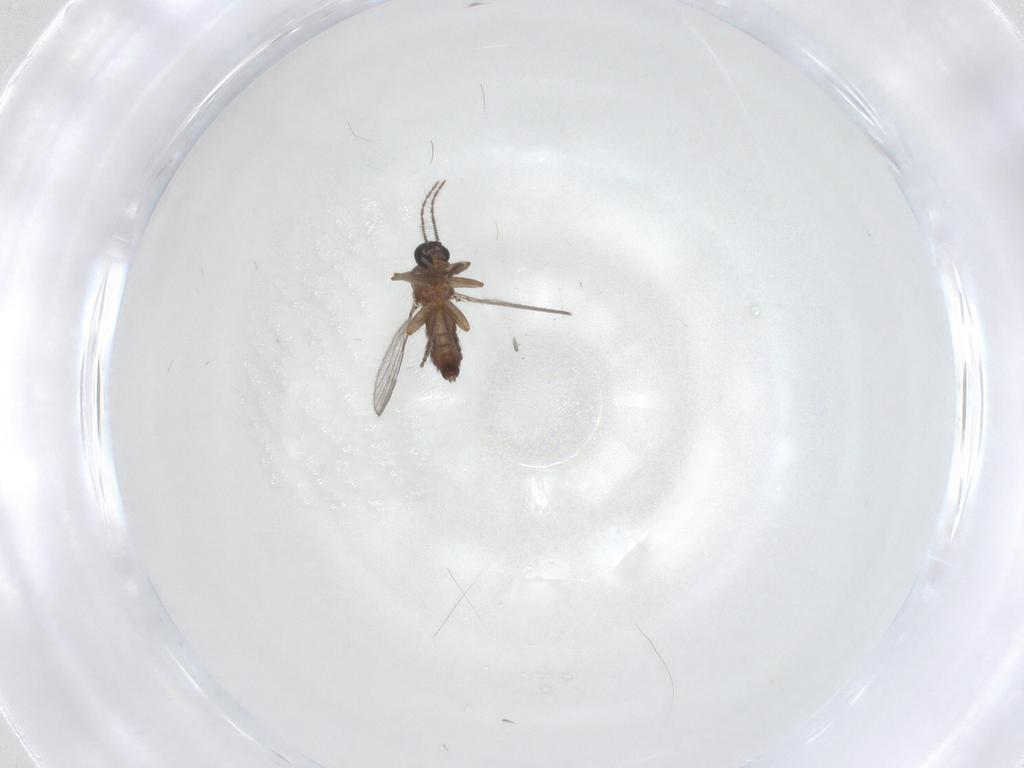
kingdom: Animalia
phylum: Arthropoda
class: Insecta
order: Diptera
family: Ceratopogonidae
